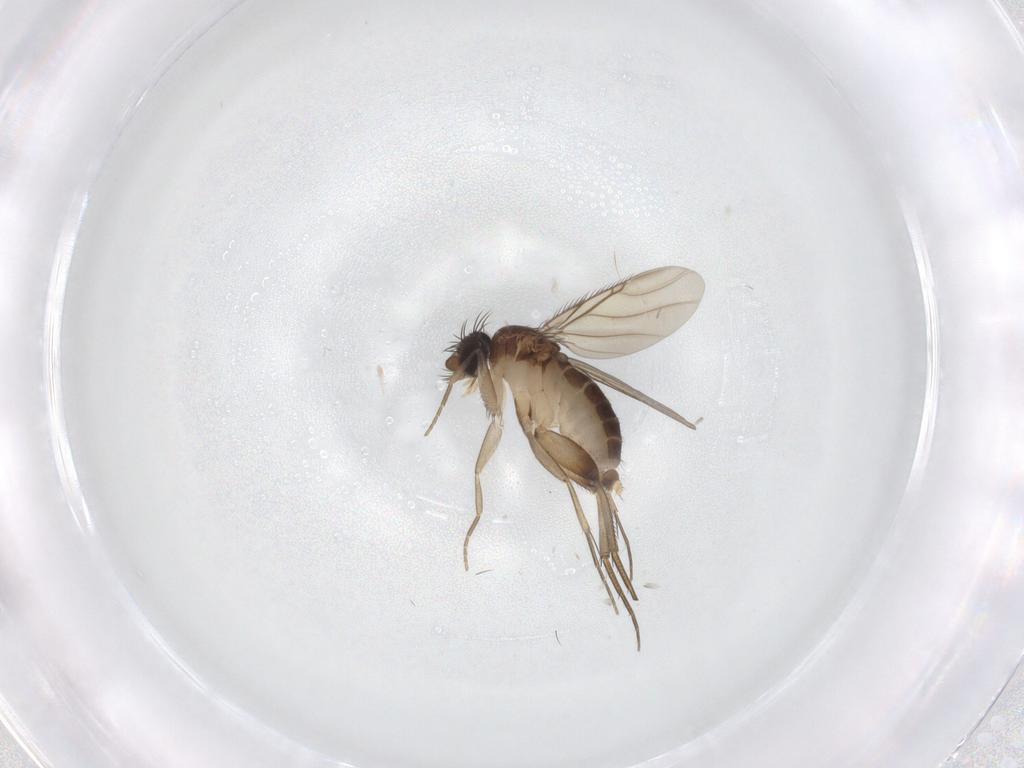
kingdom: Animalia
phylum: Arthropoda
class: Insecta
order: Diptera
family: Phoridae
